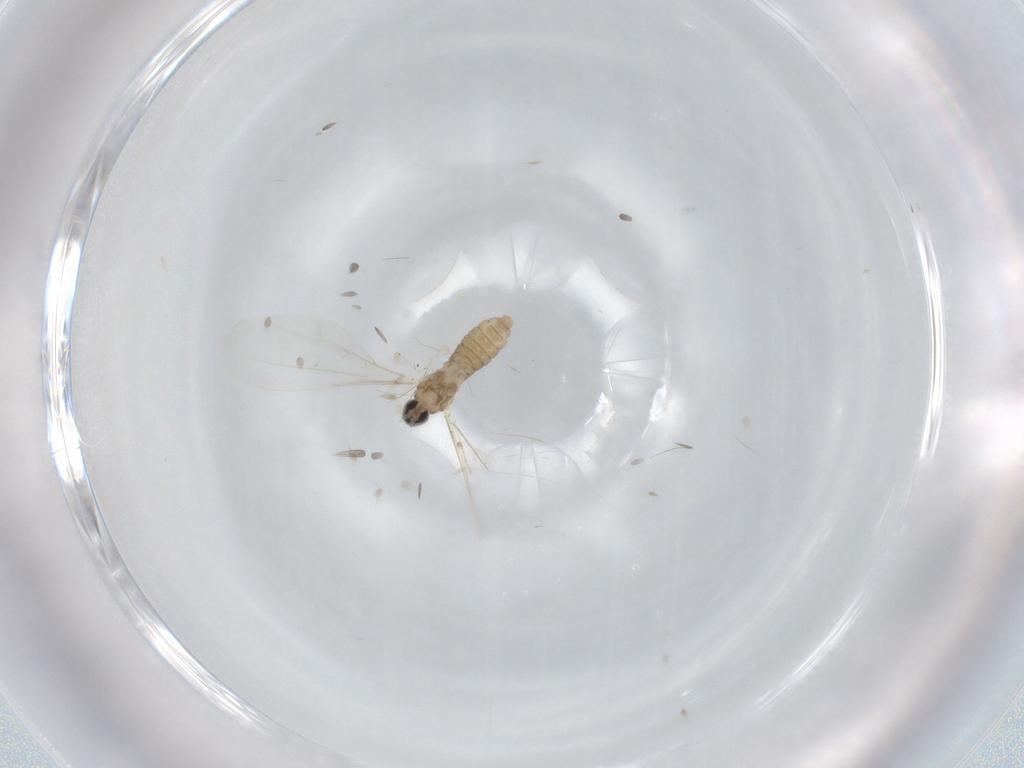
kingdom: Animalia
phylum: Arthropoda
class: Insecta
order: Diptera
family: Cecidomyiidae
